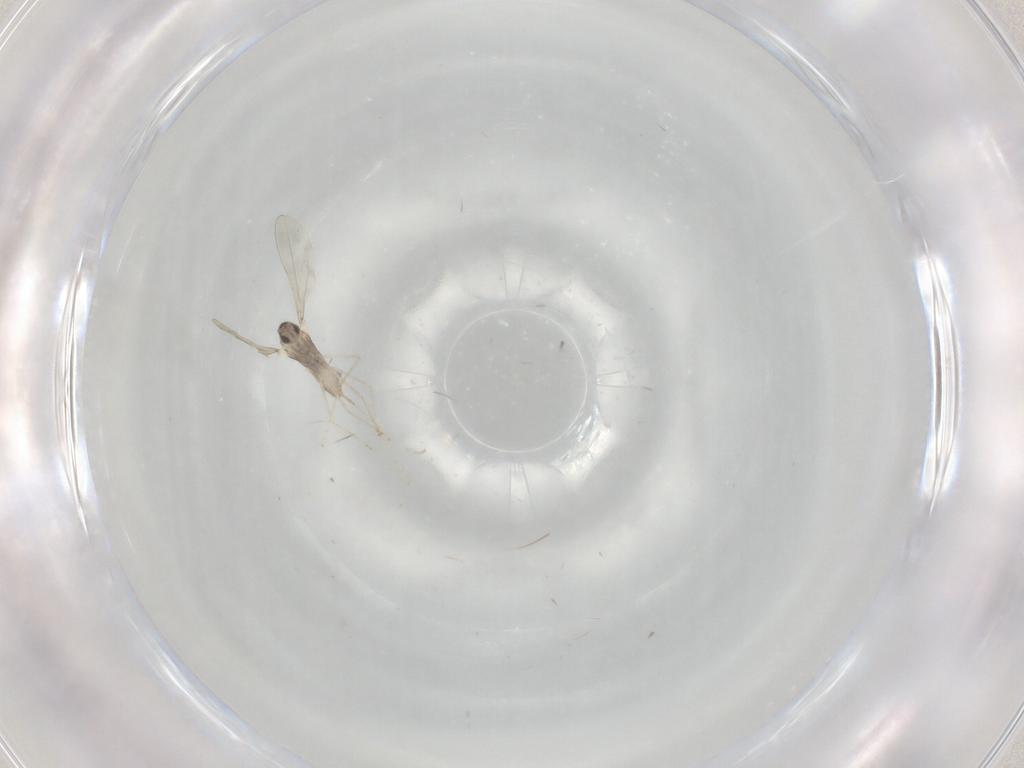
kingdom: Animalia
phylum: Arthropoda
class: Insecta
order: Diptera
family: Cecidomyiidae
